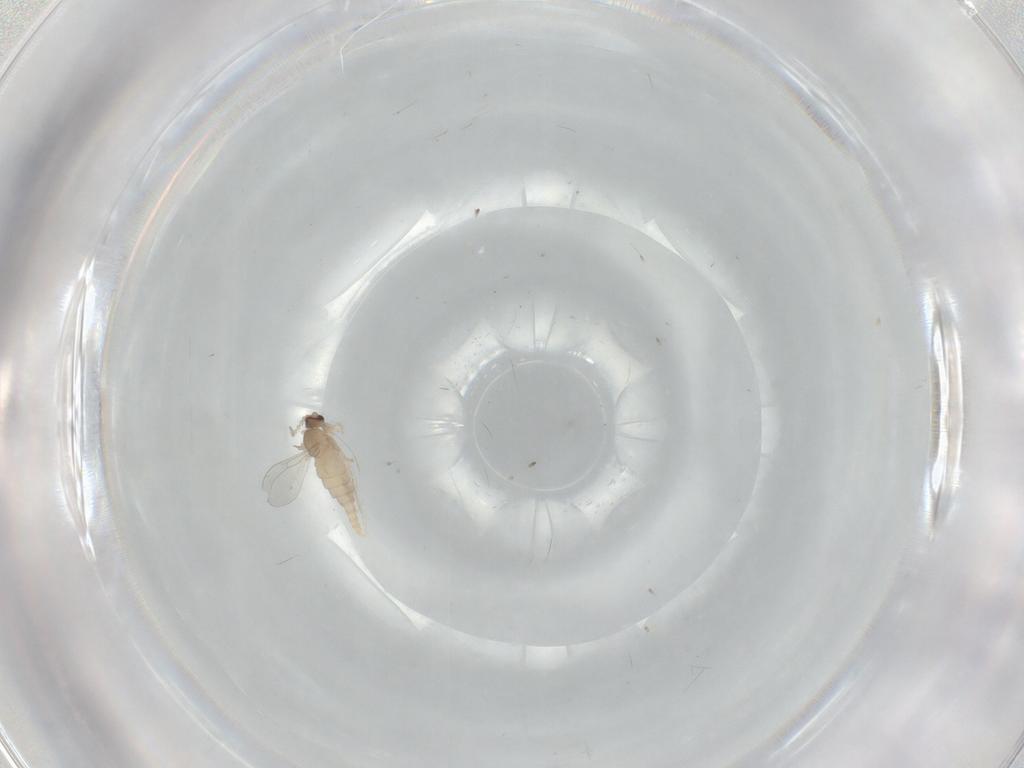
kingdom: Animalia
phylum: Arthropoda
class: Insecta
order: Diptera
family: Cecidomyiidae
